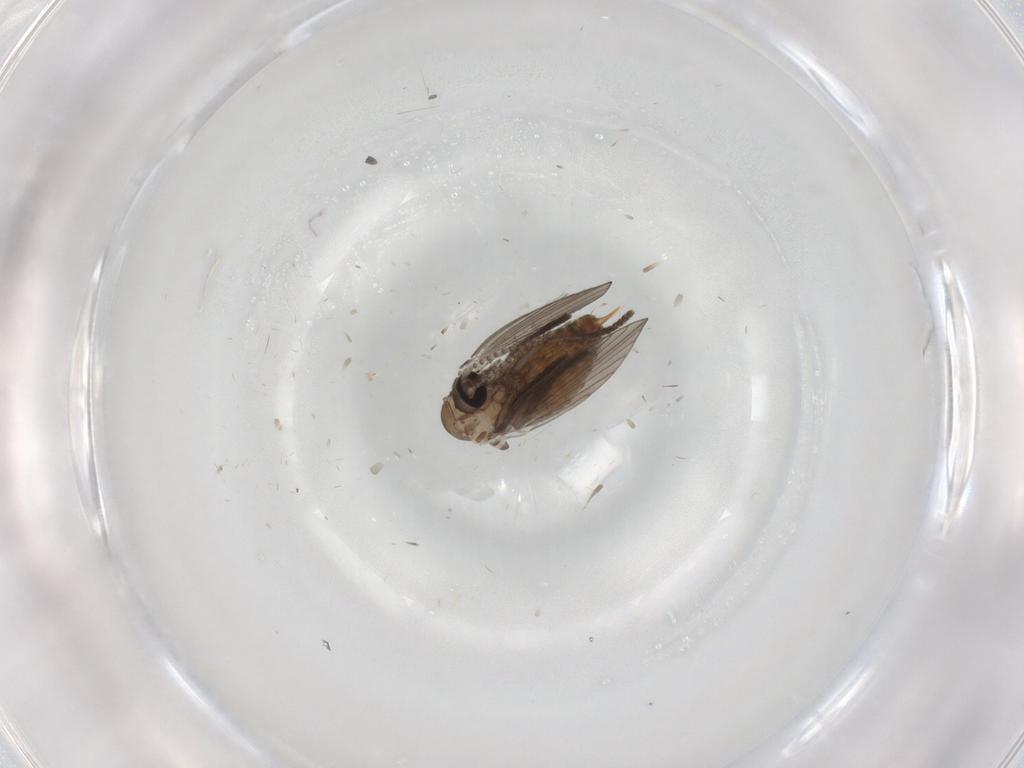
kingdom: Animalia
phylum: Arthropoda
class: Insecta
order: Diptera
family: Psychodidae
